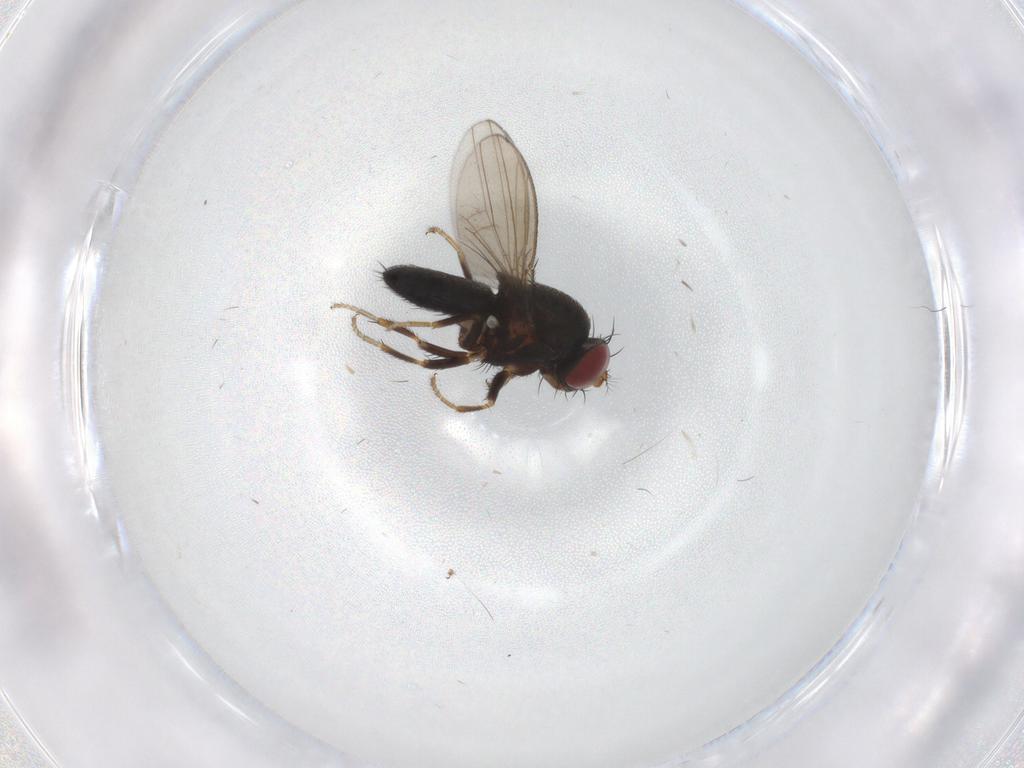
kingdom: Animalia
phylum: Arthropoda
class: Insecta
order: Diptera
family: Ephydridae
